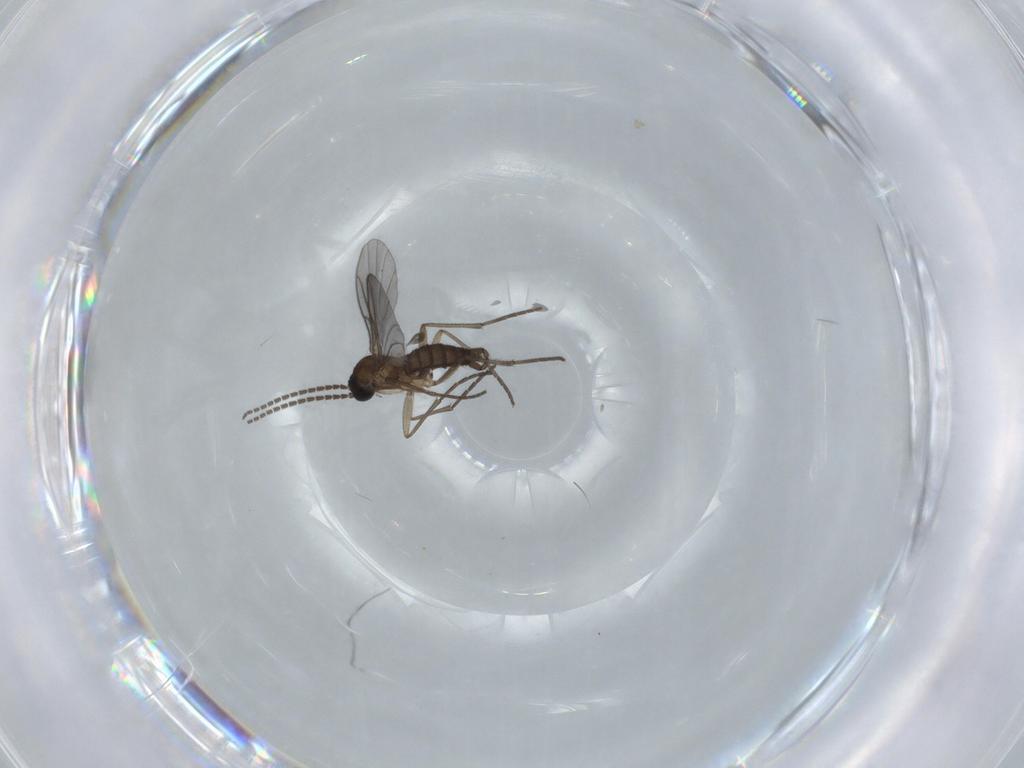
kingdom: Animalia
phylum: Arthropoda
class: Insecta
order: Diptera
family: Sciaridae
